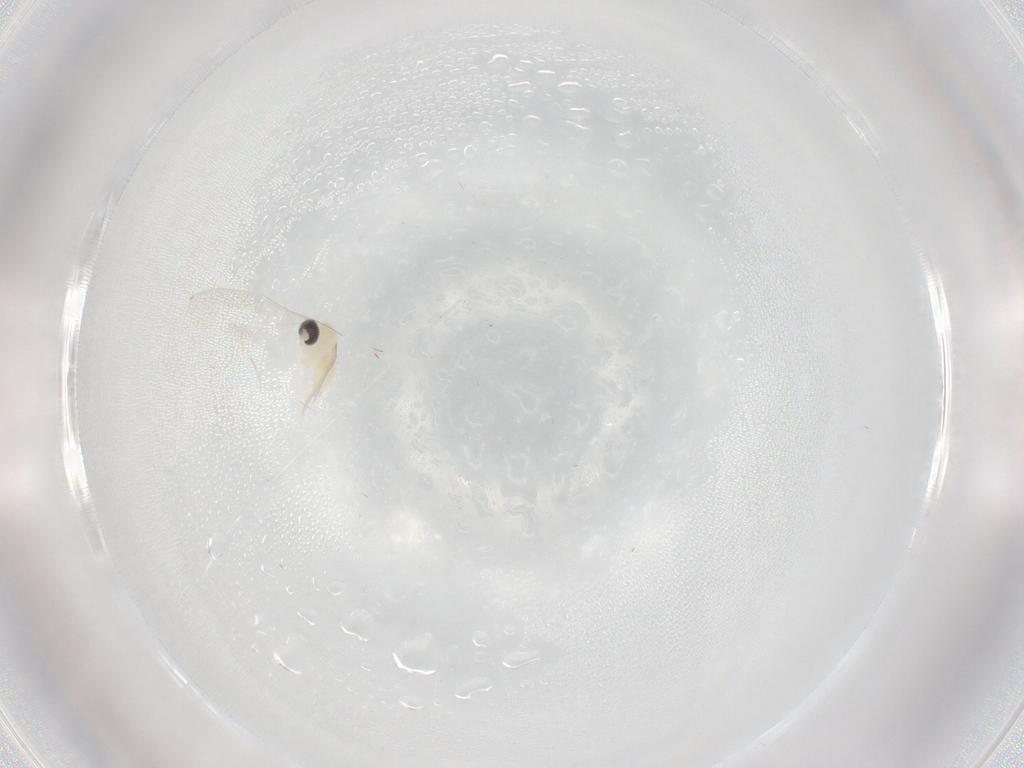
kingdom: Animalia
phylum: Arthropoda
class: Insecta
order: Diptera
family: Cecidomyiidae
